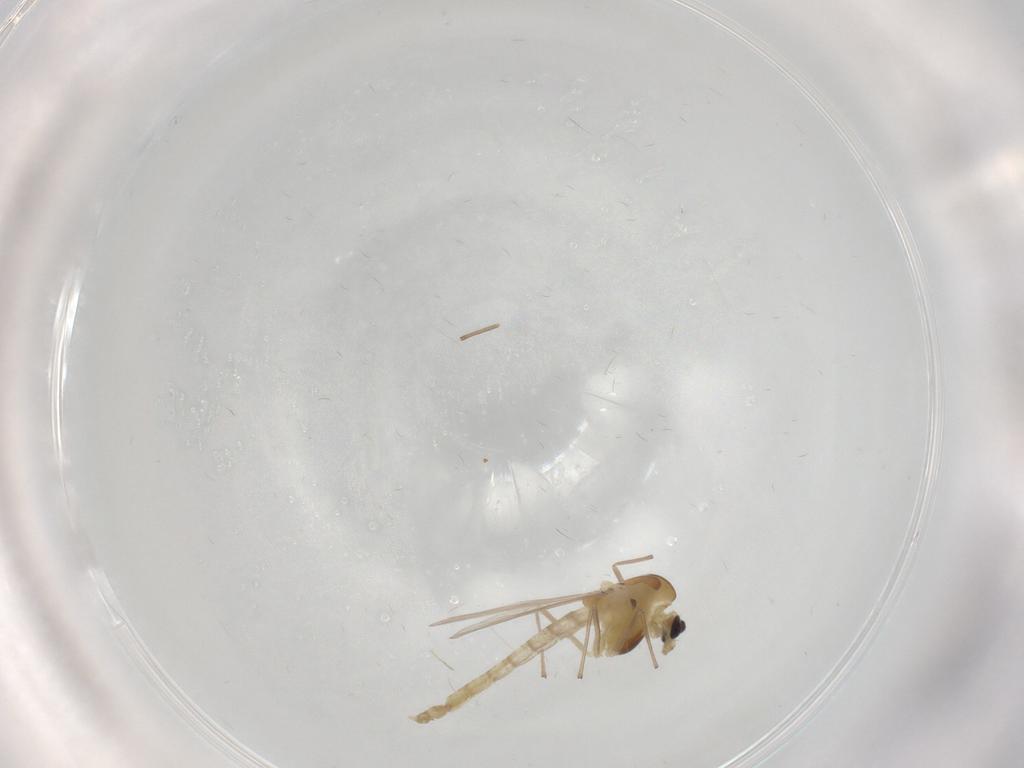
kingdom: Animalia
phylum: Arthropoda
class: Insecta
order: Diptera
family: Chironomidae
